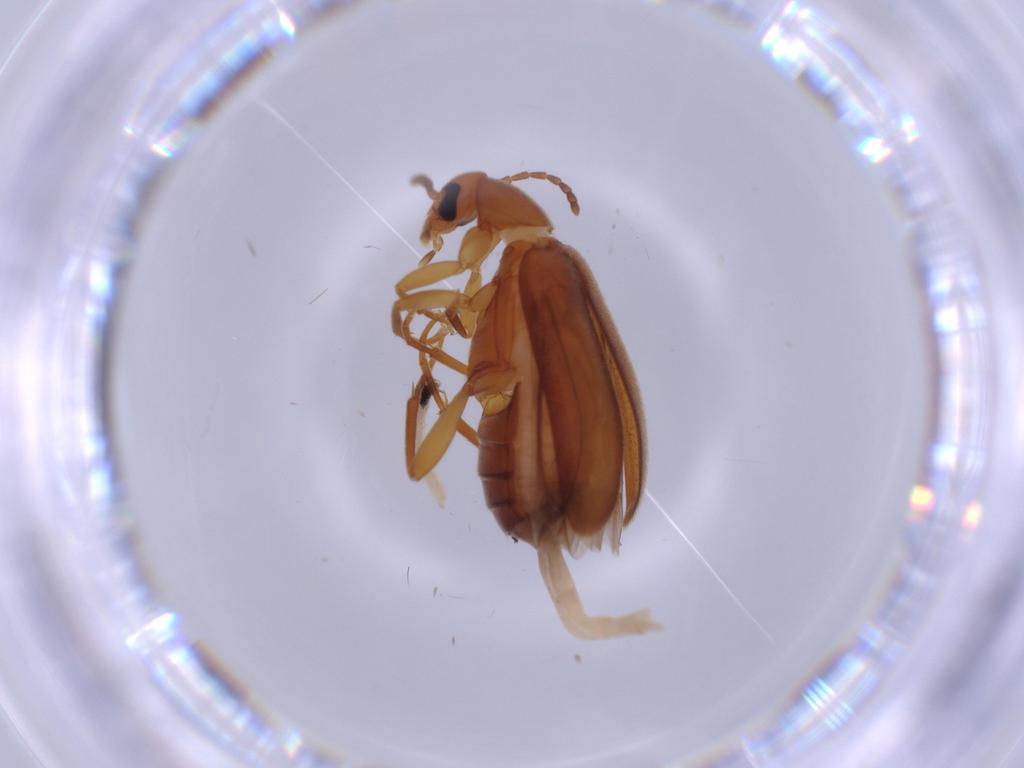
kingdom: Animalia
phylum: Arthropoda
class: Insecta
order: Coleoptera
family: Scraptiidae
